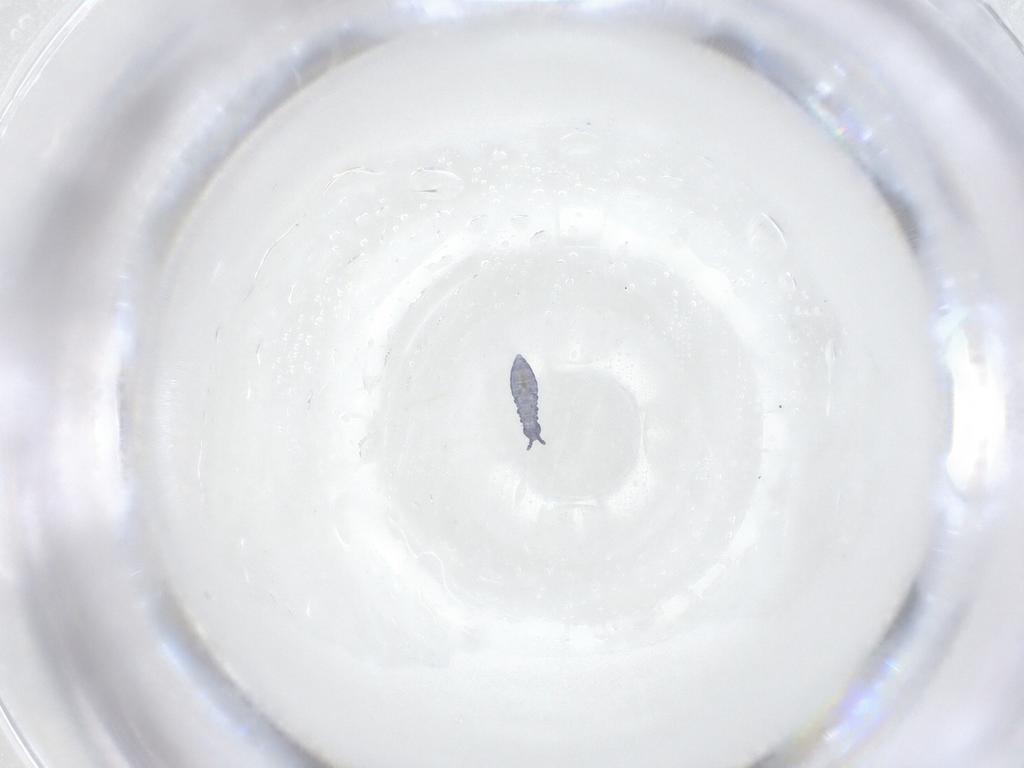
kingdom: Animalia
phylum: Arthropoda
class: Collembola
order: Poduromorpha
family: Hypogastruridae
